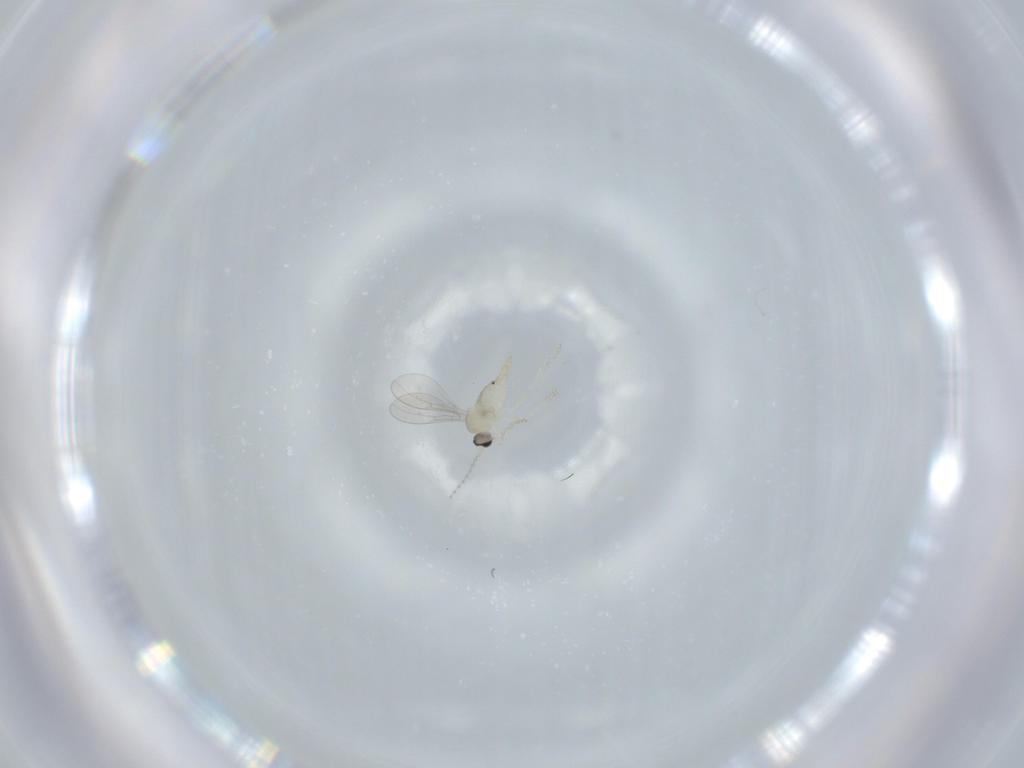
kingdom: Animalia
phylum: Arthropoda
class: Insecta
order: Diptera
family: Cecidomyiidae
